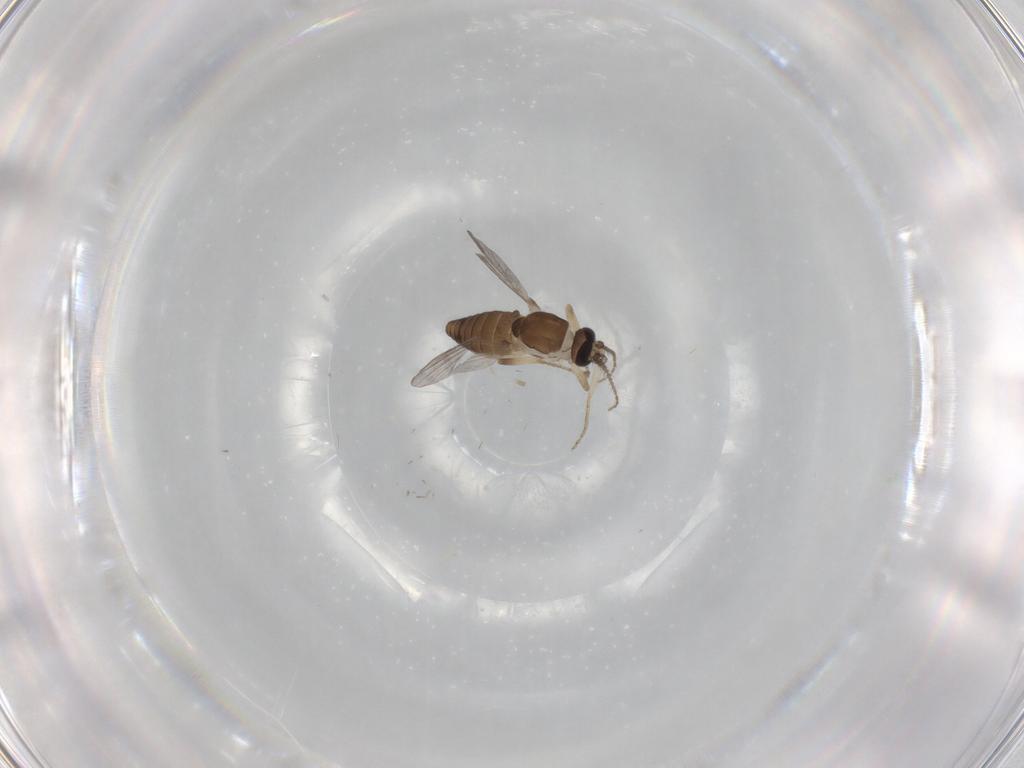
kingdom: Animalia
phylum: Arthropoda
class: Insecta
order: Diptera
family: Ceratopogonidae
